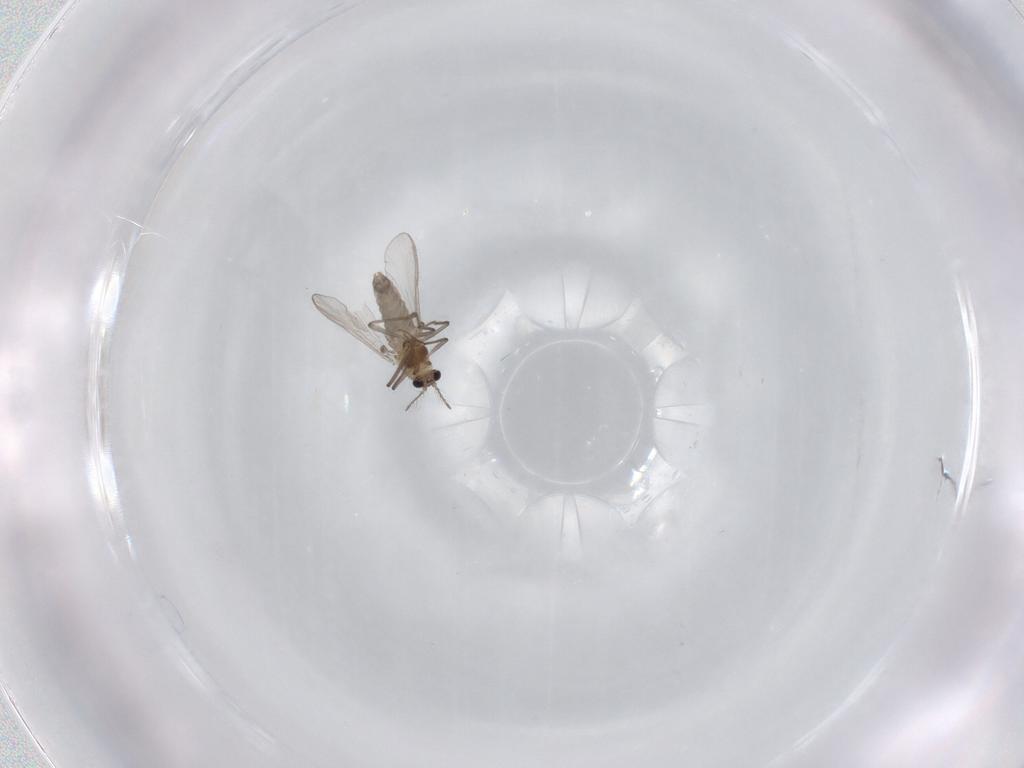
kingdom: Animalia
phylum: Arthropoda
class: Insecta
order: Diptera
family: Chironomidae
